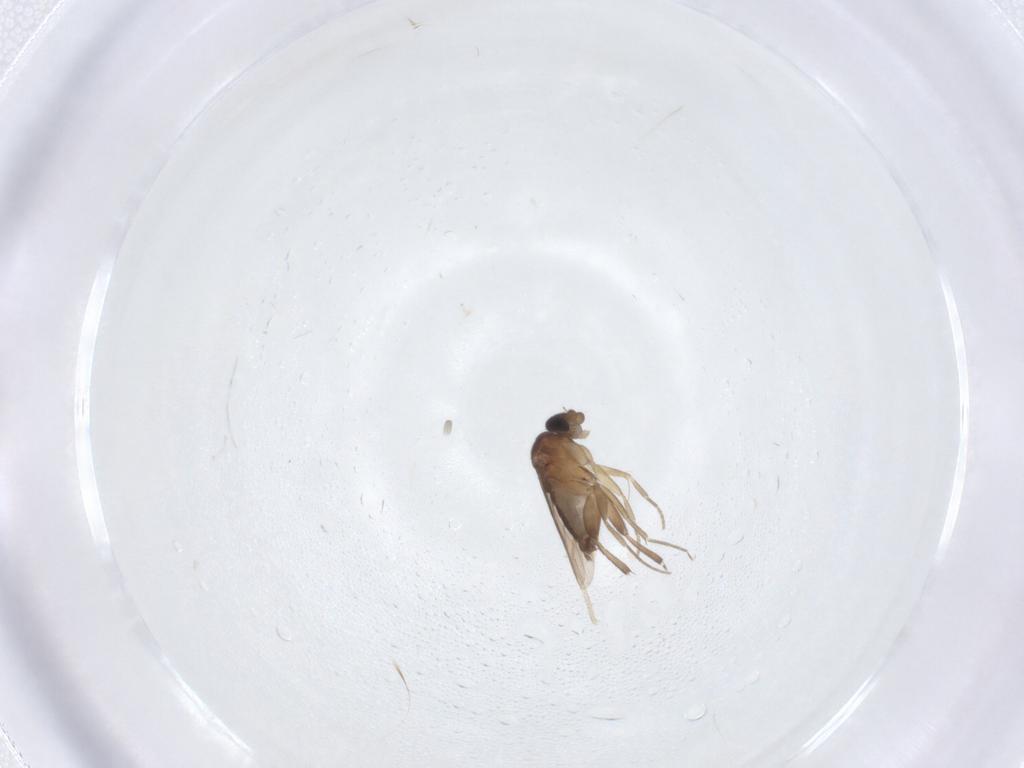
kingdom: Animalia
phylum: Arthropoda
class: Insecta
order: Diptera
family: Phoridae
